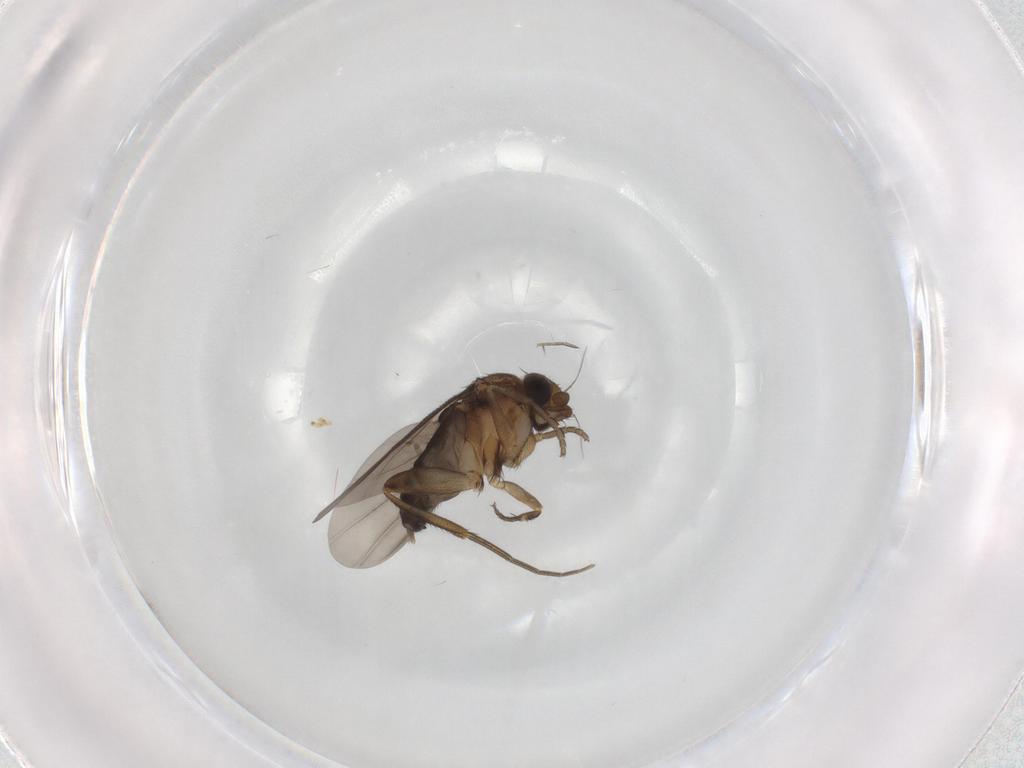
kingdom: Animalia
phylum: Arthropoda
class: Insecta
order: Diptera
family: Phoridae
